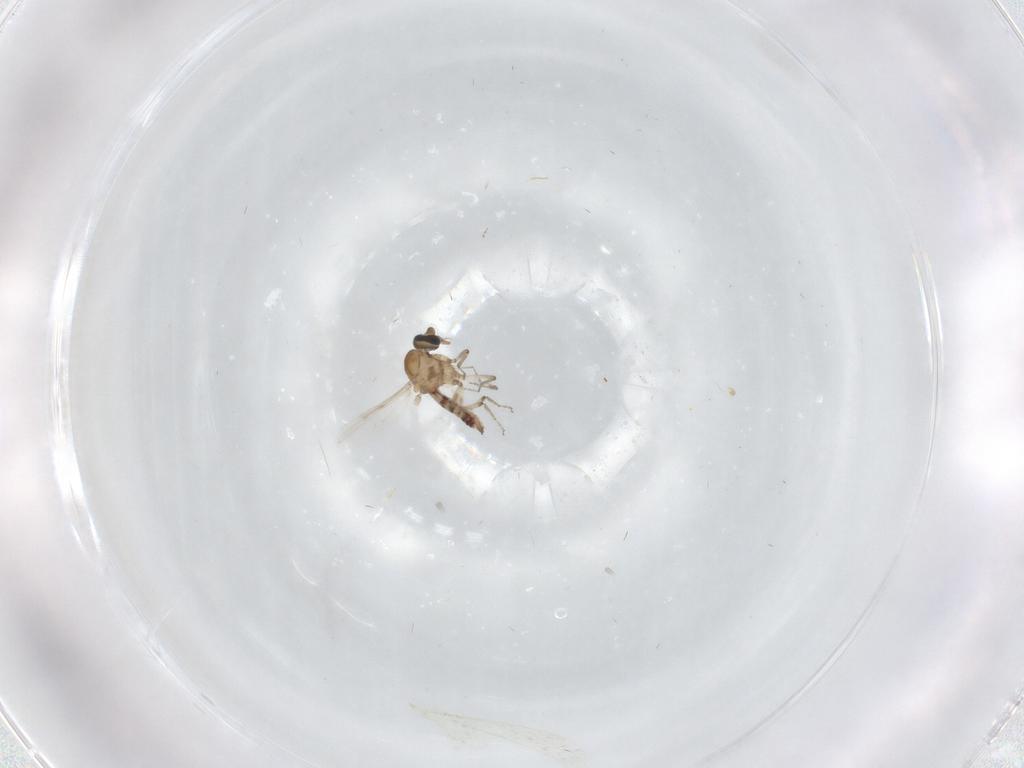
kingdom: Animalia
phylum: Arthropoda
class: Insecta
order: Diptera
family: Ceratopogonidae
